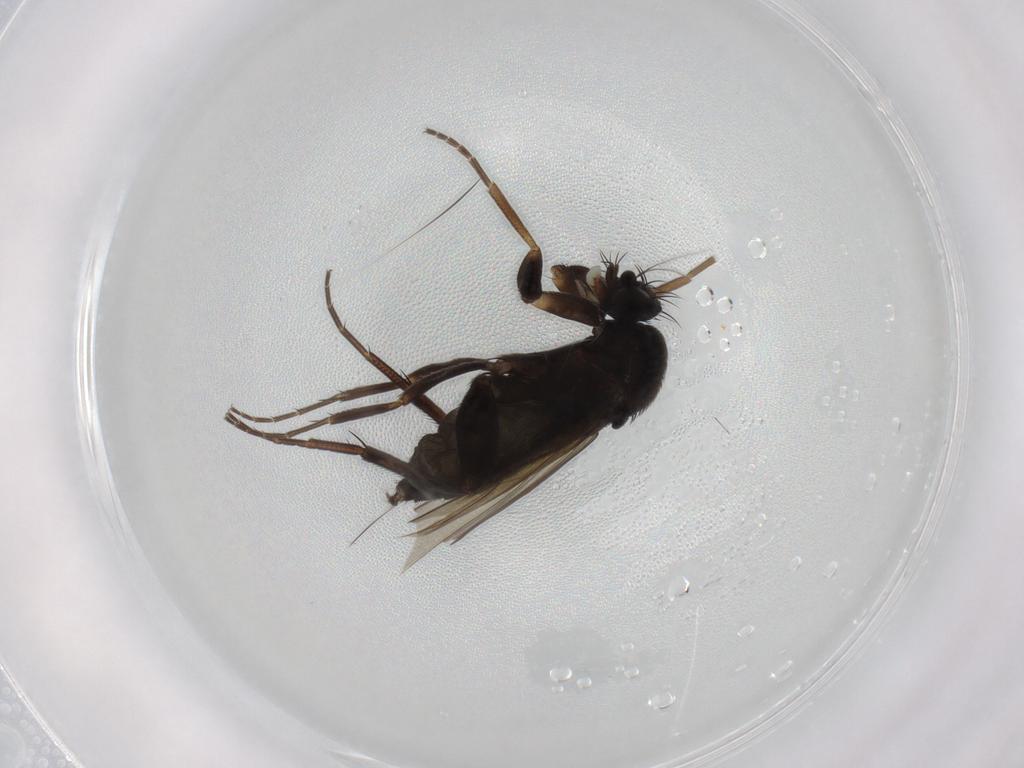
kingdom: Animalia
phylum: Arthropoda
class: Insecta
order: Diptera
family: Phoridae
